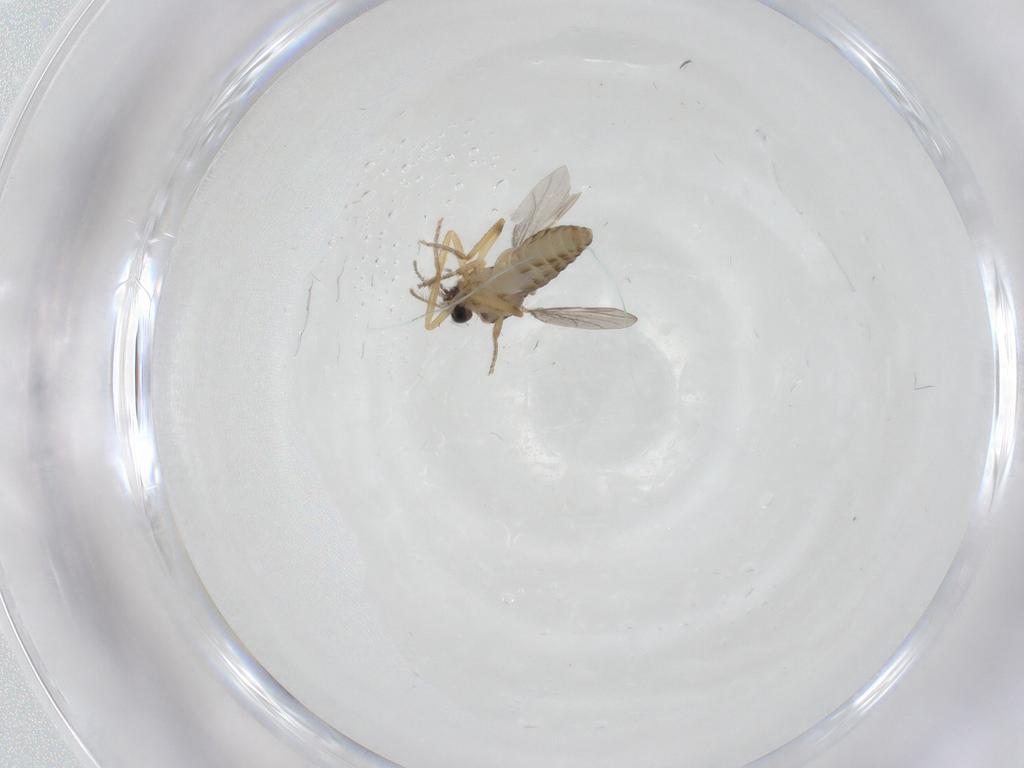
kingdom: Animalia
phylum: Arthropoda
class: Insecta
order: Diptera
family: Ceratopogonidae
